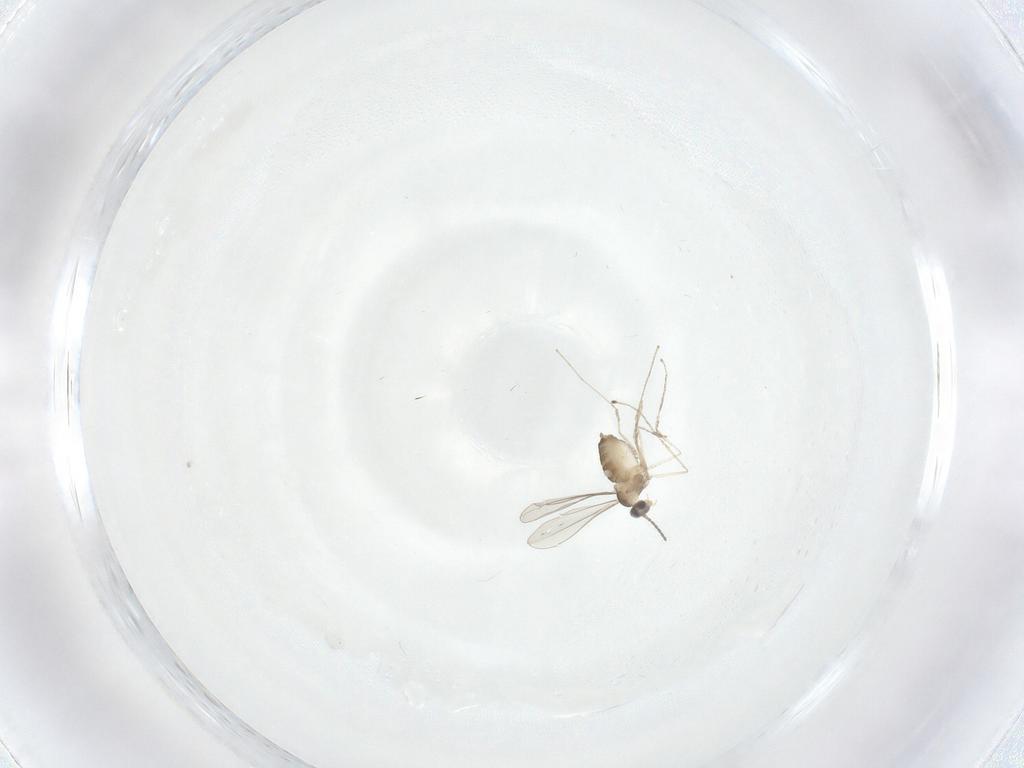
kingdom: Animalia
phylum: Arthropoda
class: Insecta
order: Diptera
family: Cecidomyiidae
